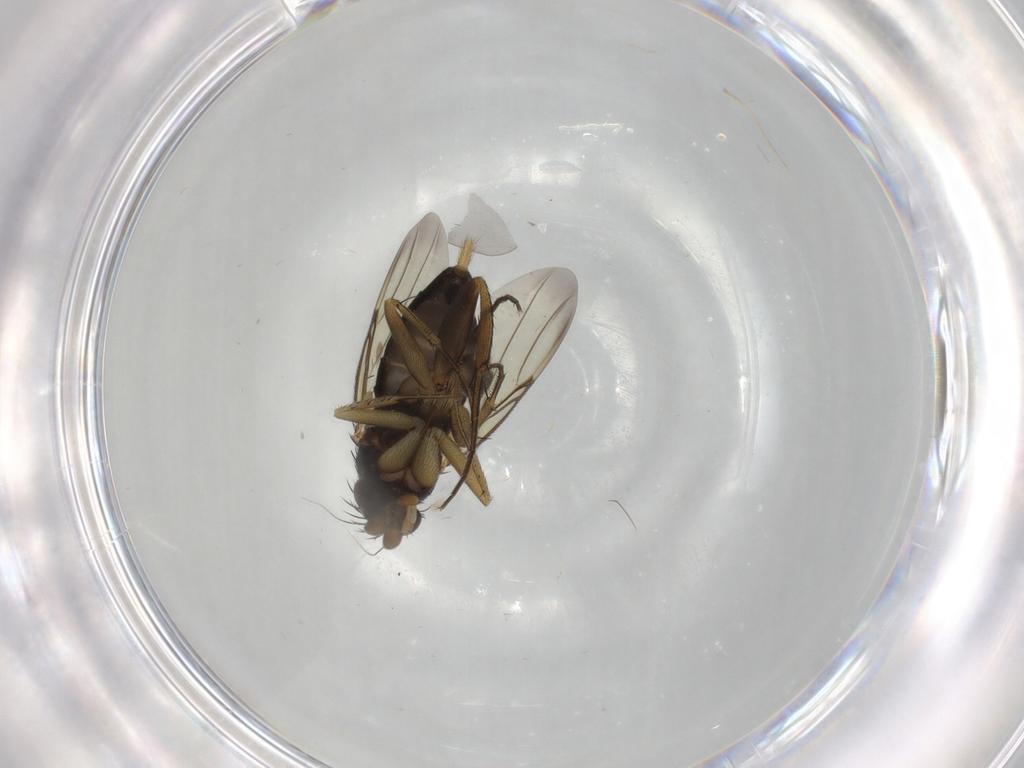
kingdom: Animalia
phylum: Arthropoda
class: Insecta
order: Diptera
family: Phoridae
